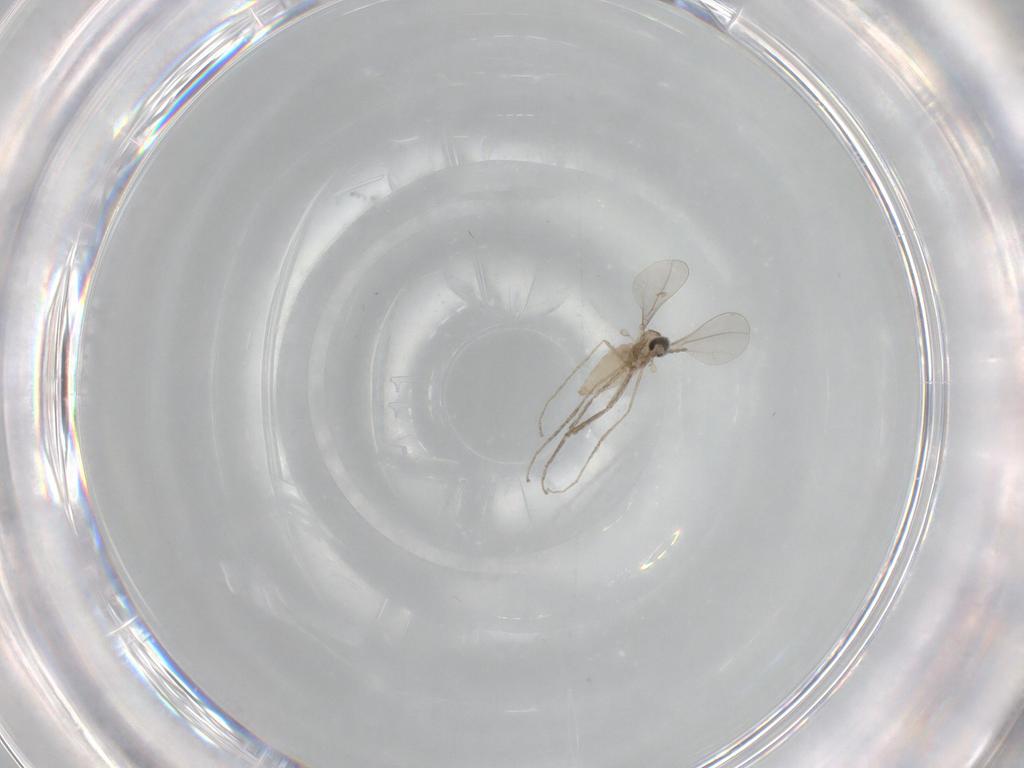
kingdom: Animalia
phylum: Arthropoda
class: Insecta
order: Diptera
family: Cecidomyiidae
